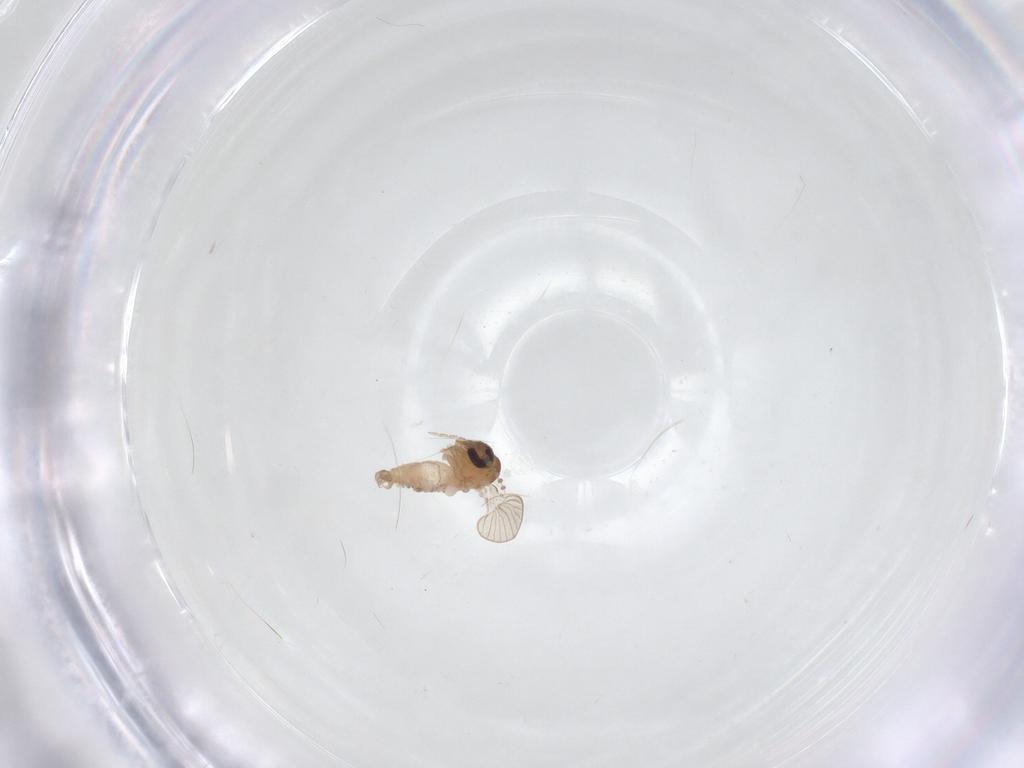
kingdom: Animalia
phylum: Arthropoda
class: Insecta
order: Diptera
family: Psychodidae
